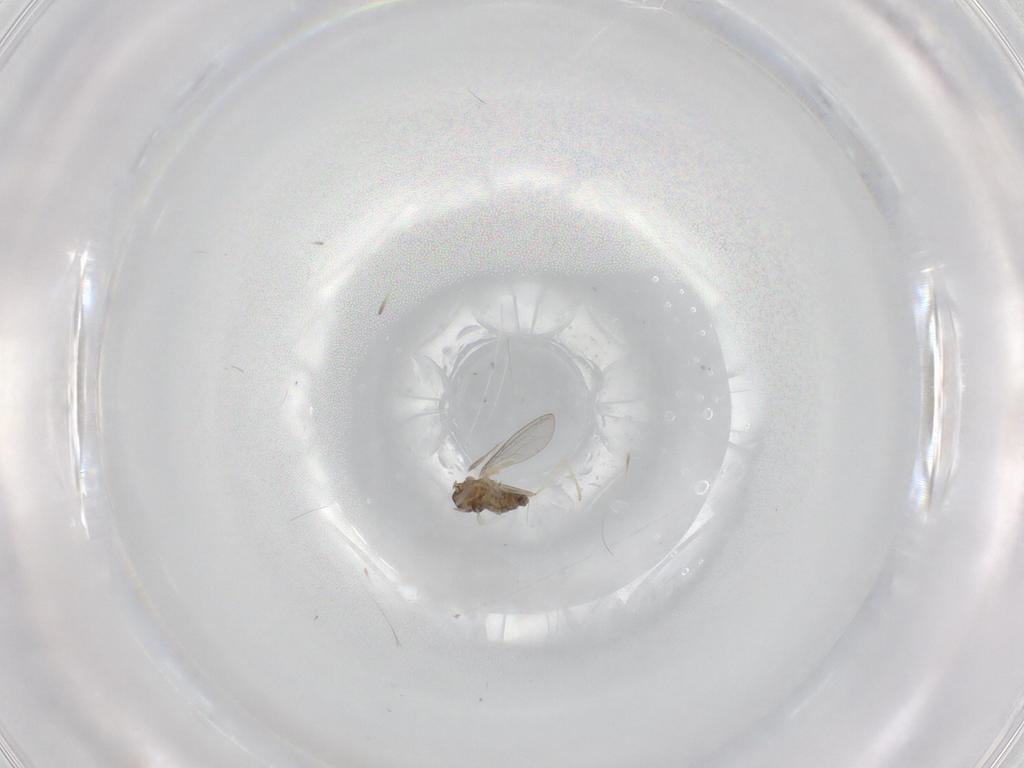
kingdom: Animalia
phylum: Arthropoda
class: Insecta
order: Diptera
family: Cecidomyiidae
